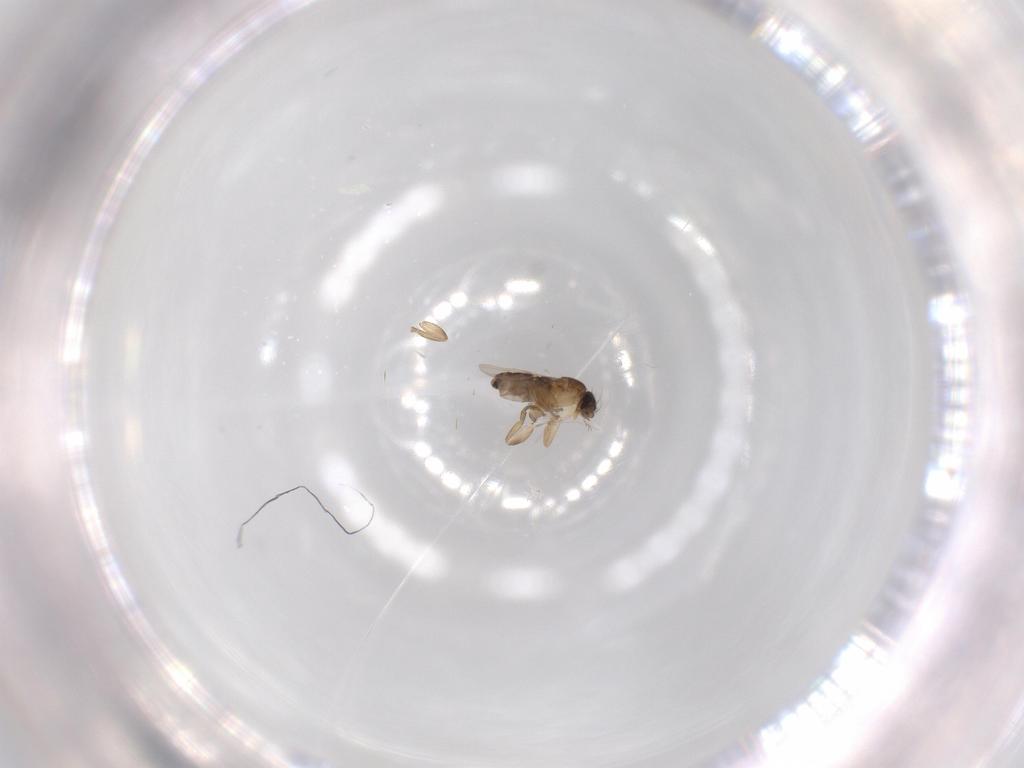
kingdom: Animalia
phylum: Arthropoda
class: Insecta
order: Diptera
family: Phoridae
